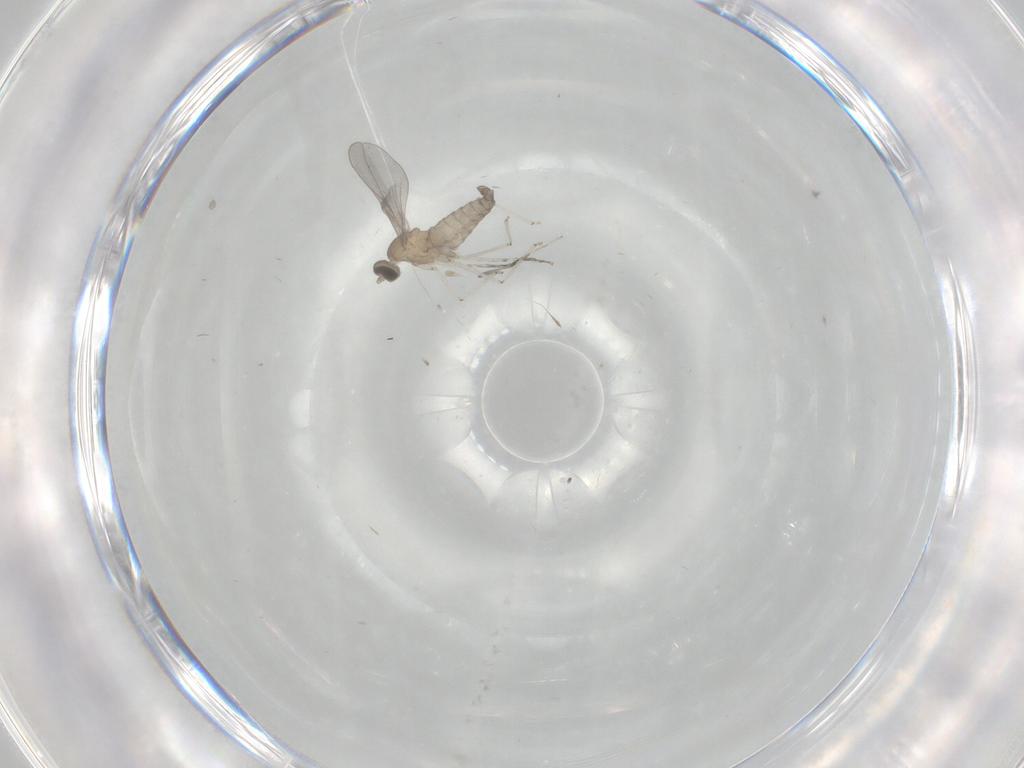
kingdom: Animalia
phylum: Arthropoda
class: Insecta
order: Diptera
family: Cecidomyiidae
